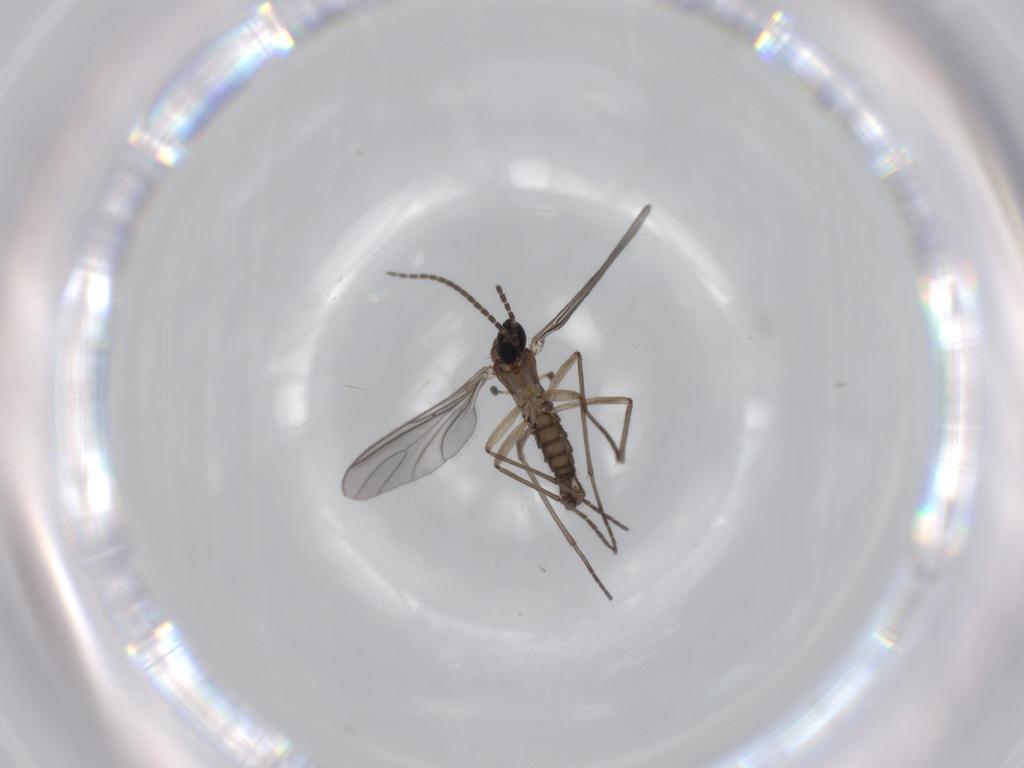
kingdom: Animalia
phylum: Arthropoda
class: Insecta
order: Diptera
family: Sciaridae
